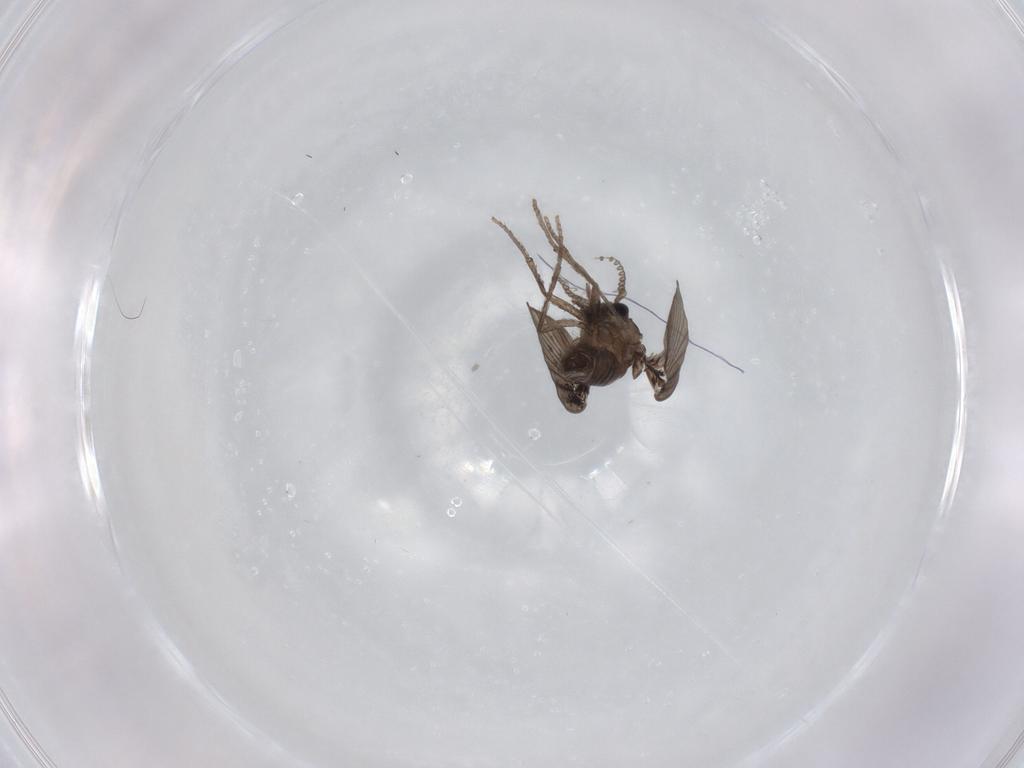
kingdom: Animalia
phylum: Arthropoda
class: Insecta
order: Diptera
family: Psychodidae
